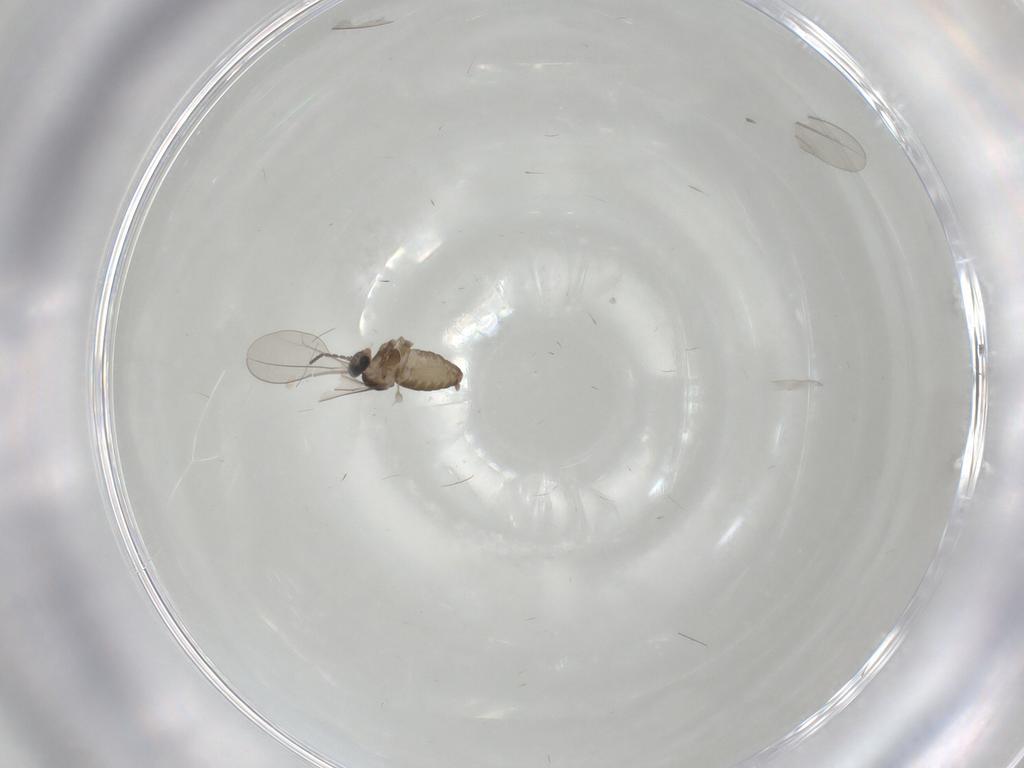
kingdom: Animalia
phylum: Arthropoda
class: Insecta
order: Diptera
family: Cecidomyiidae
